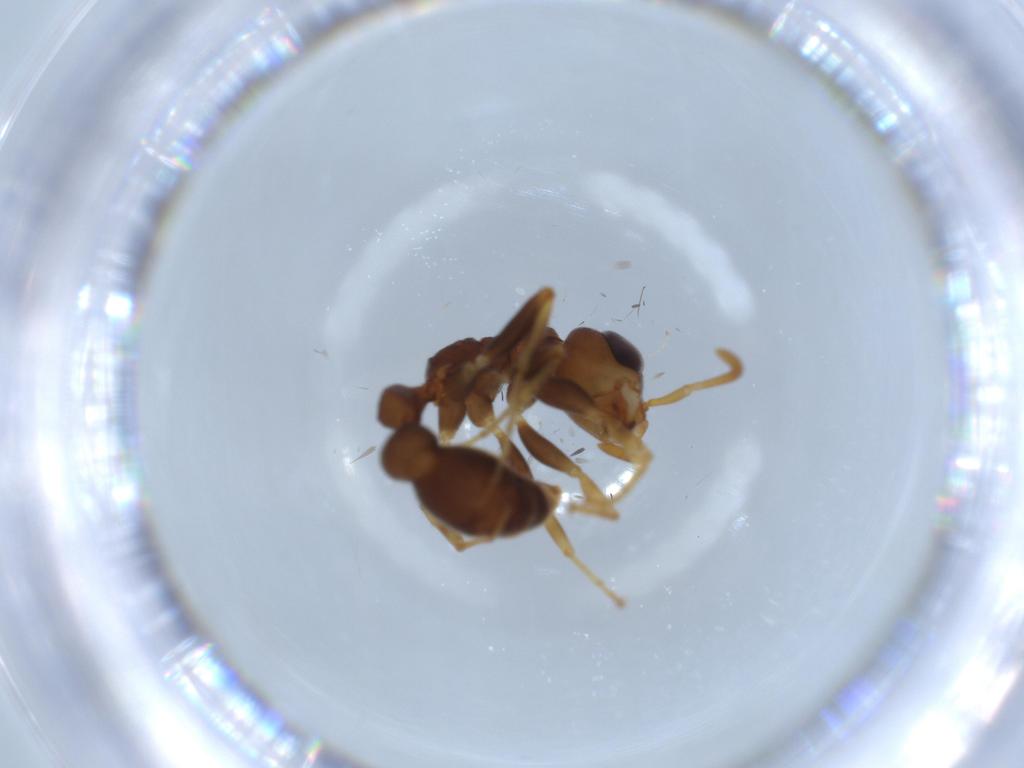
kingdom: Animalia
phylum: Arthropoda
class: Insecta
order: Hymenoptera
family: Formicidae
